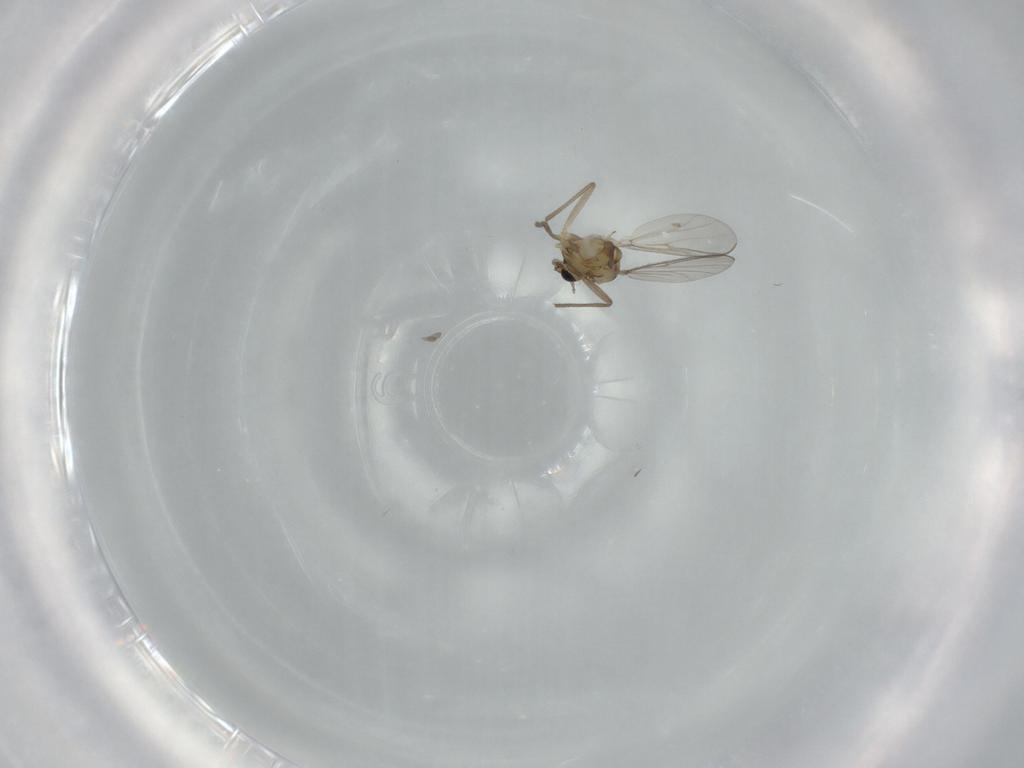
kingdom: Animalia
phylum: Arthropoda
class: Insecta
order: Diptera
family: Chironomidae
